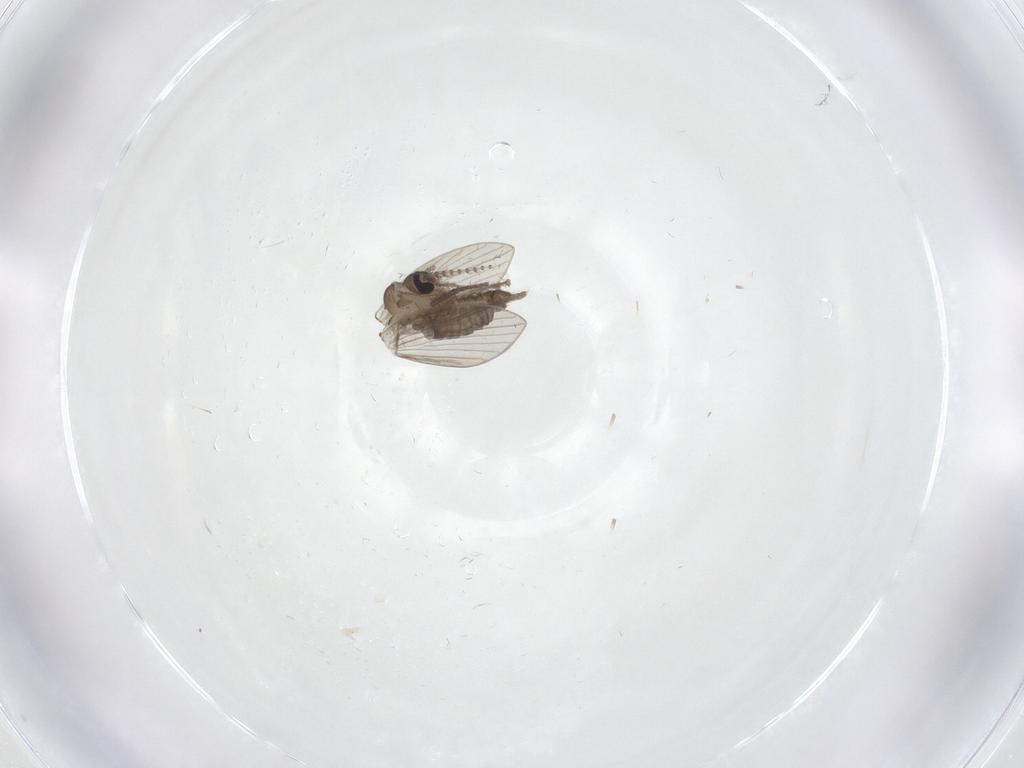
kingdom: Animalia
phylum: Arthropoda
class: Insecta
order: Diptera
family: Psychodidae
